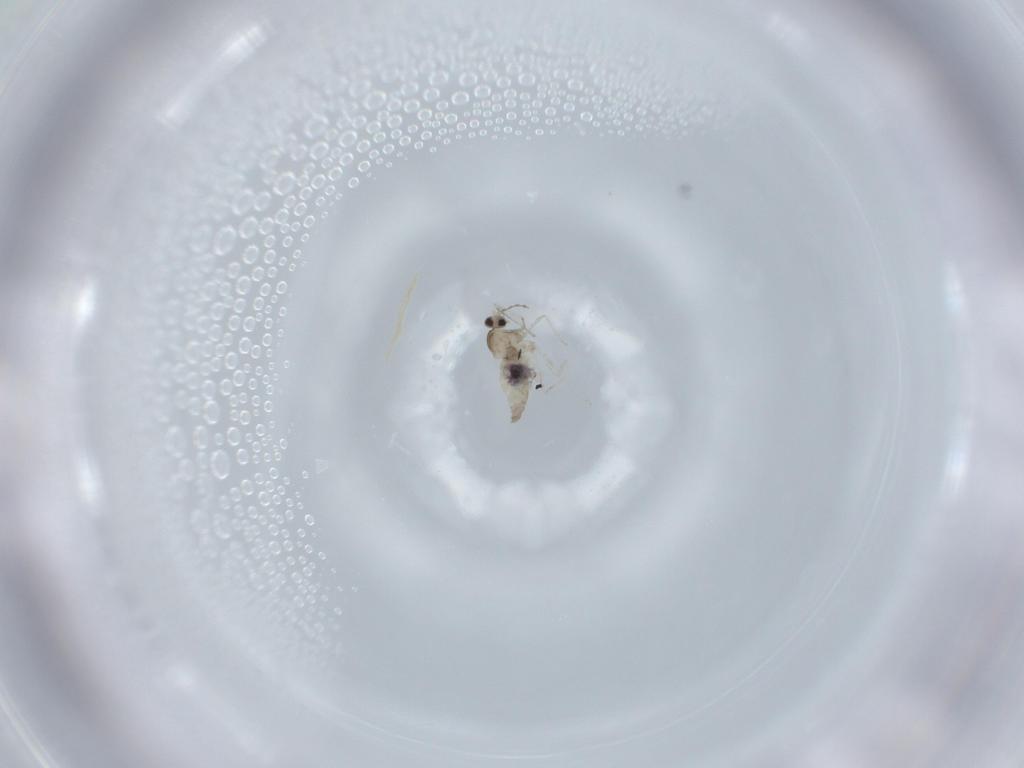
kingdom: Animalia
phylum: Arthropoda
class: Insecta
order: Diptera
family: Cecidomyiidae
